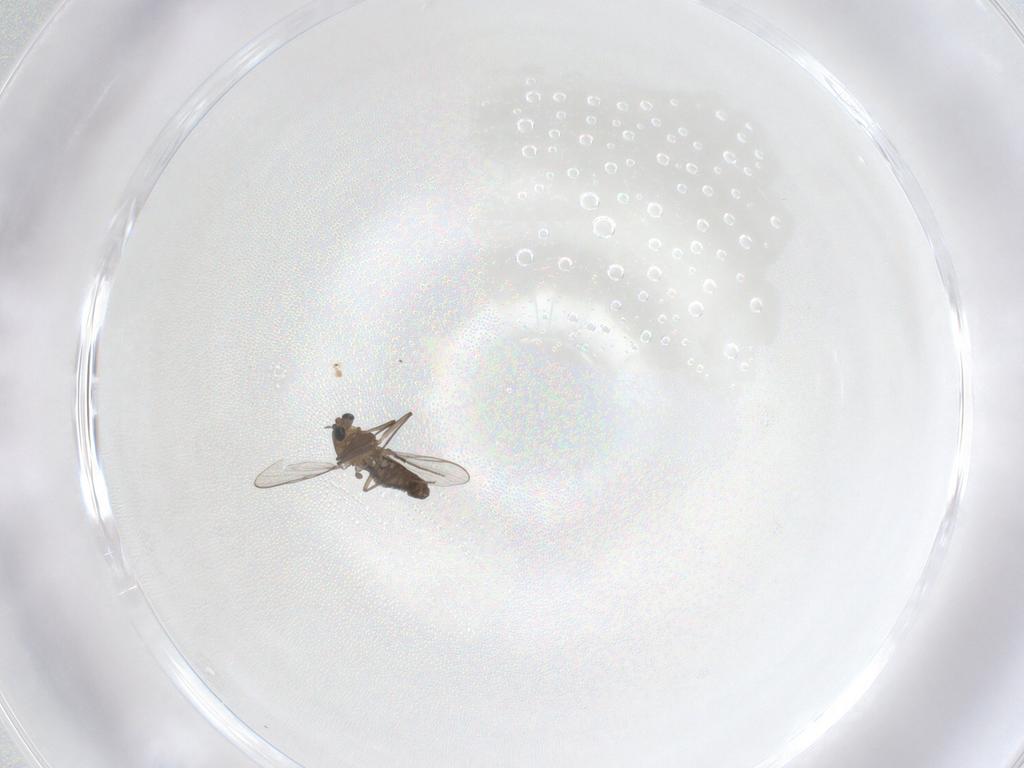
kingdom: Animalia
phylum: Arthropoda
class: Insecta
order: Diptera
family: Chironomidae
